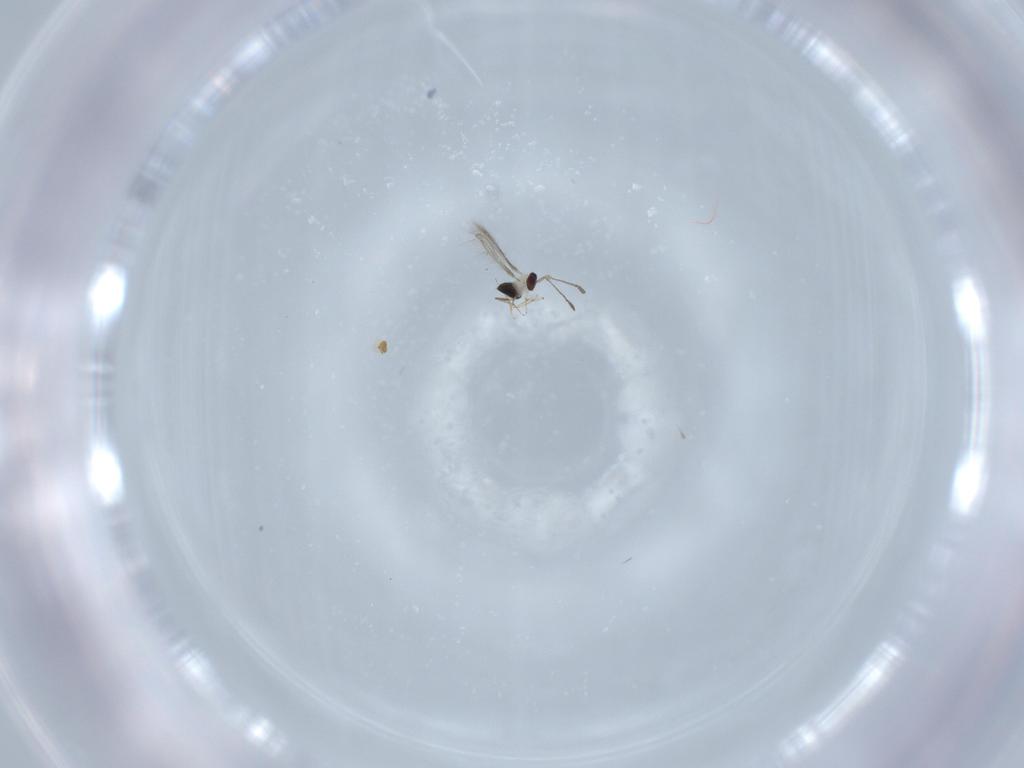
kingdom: Animalia
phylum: Arthropoda
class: Insecta
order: Hymenoptera
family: Mymaridae
